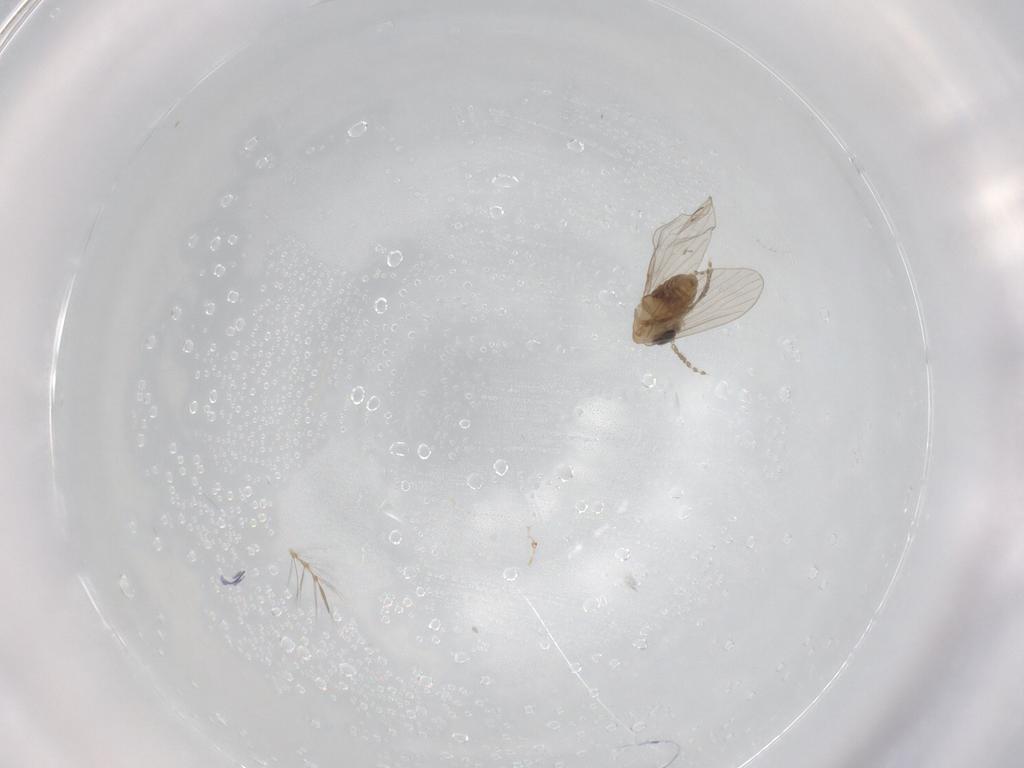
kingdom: Animalia
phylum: Arthropoda
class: Insecta
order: Diptera
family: Psychodidae
